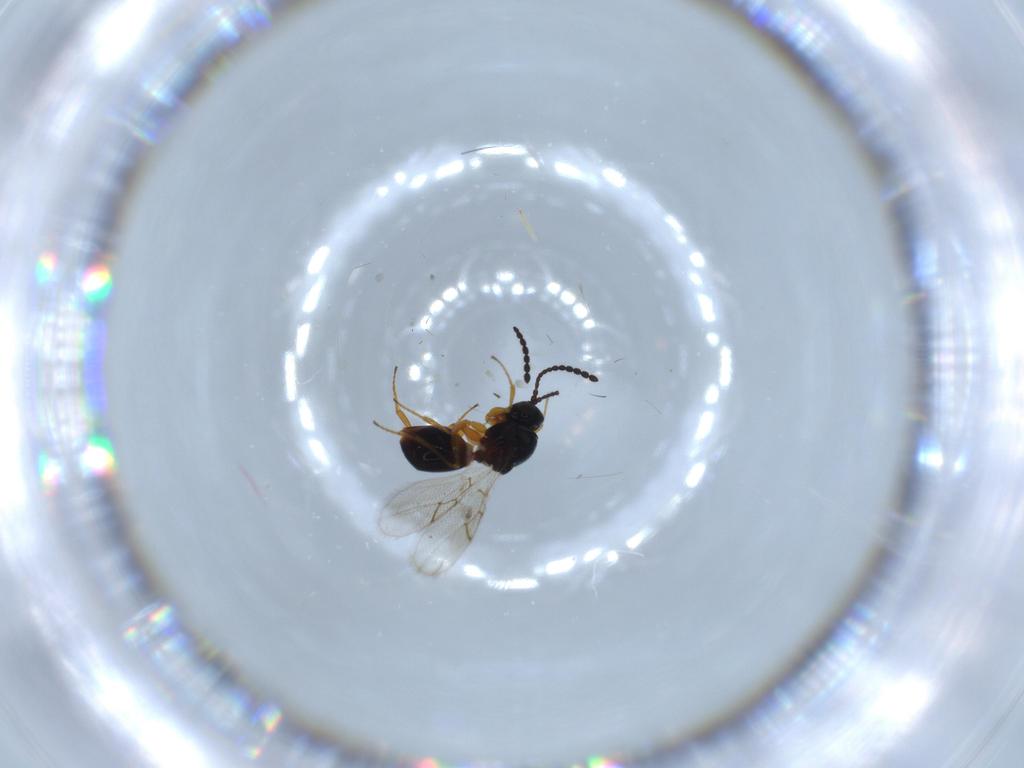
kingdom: Animalia
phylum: Arthropoda
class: Insecta
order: Hymenoptera
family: Figitidae
